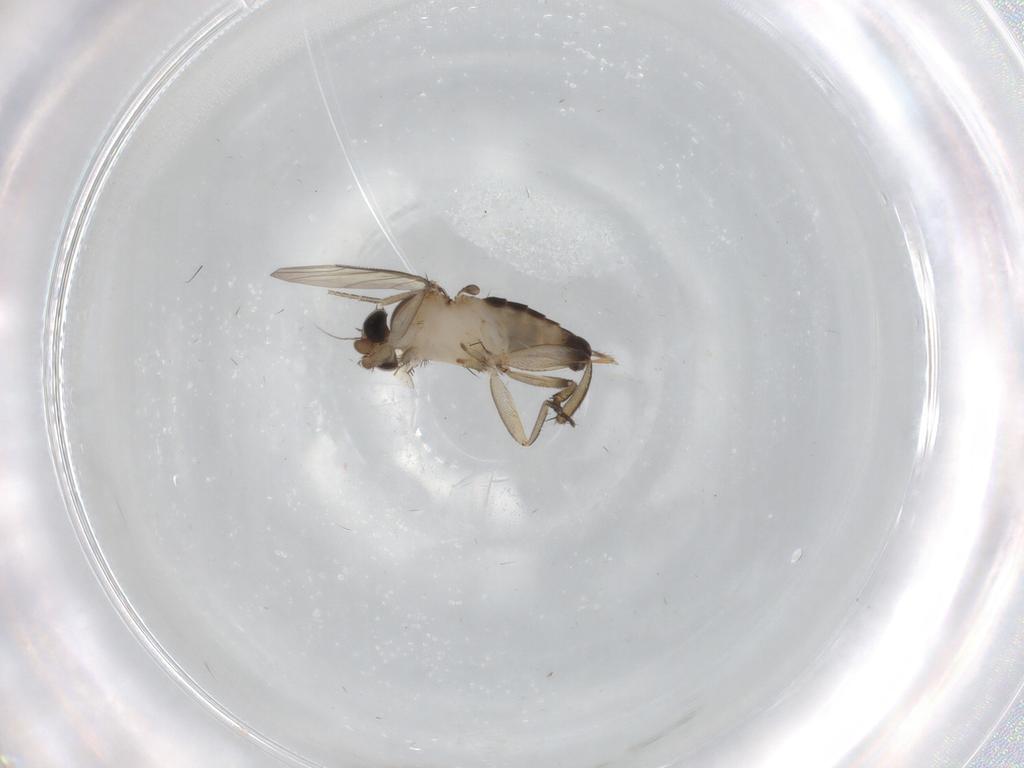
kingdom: Animalia
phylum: Arthropoda
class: Insecta
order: Diptera
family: Phoridae
